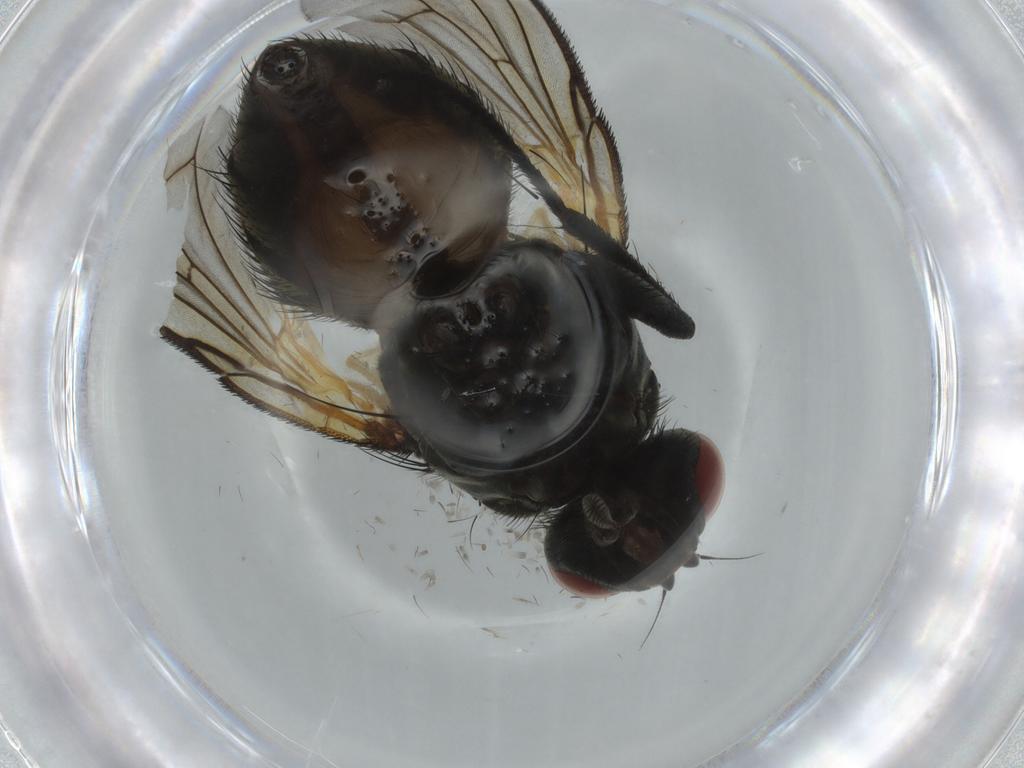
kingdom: Animalia
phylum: Arthropoda
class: Insecta
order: Diptera
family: Muscidae
